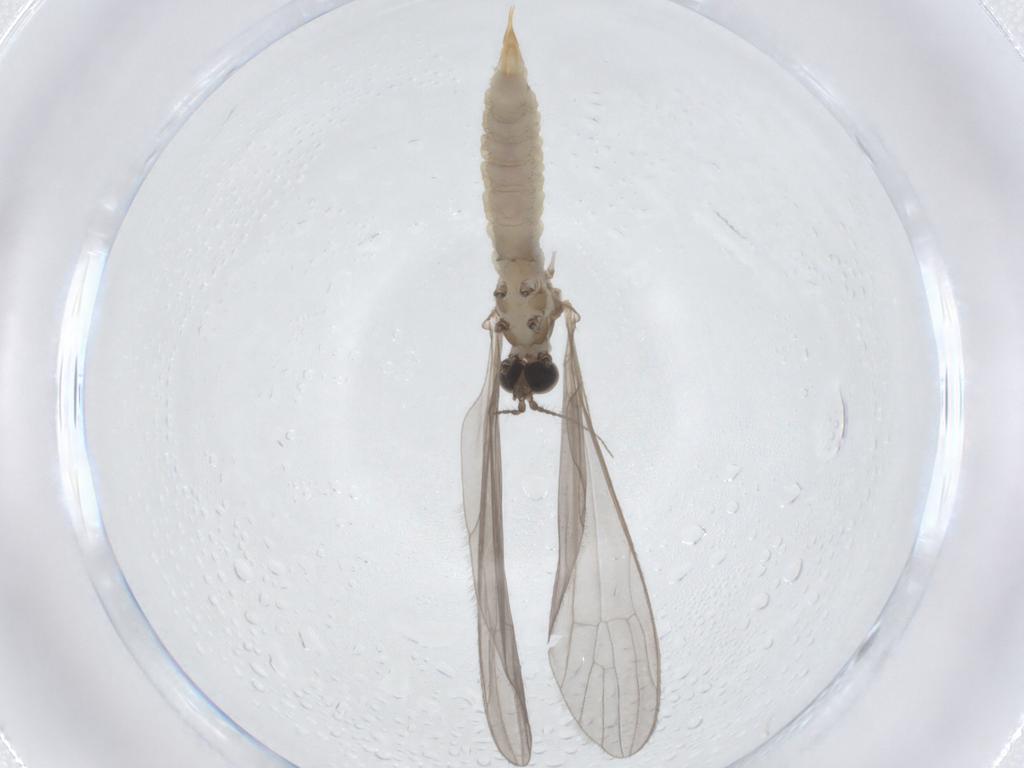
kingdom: Animalia
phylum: Arthropoda
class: Insecta
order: Diptera
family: Limoniidae
